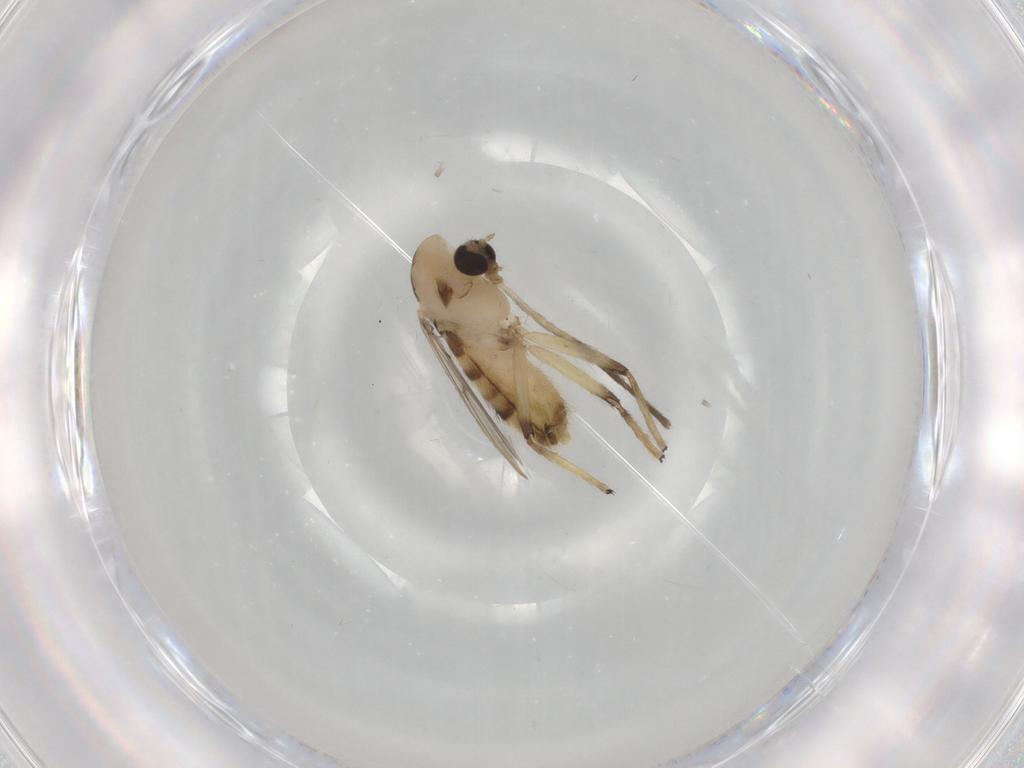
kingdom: Animalia
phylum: Arthropoda
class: Insecta
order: Diptera
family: Chironomidae
